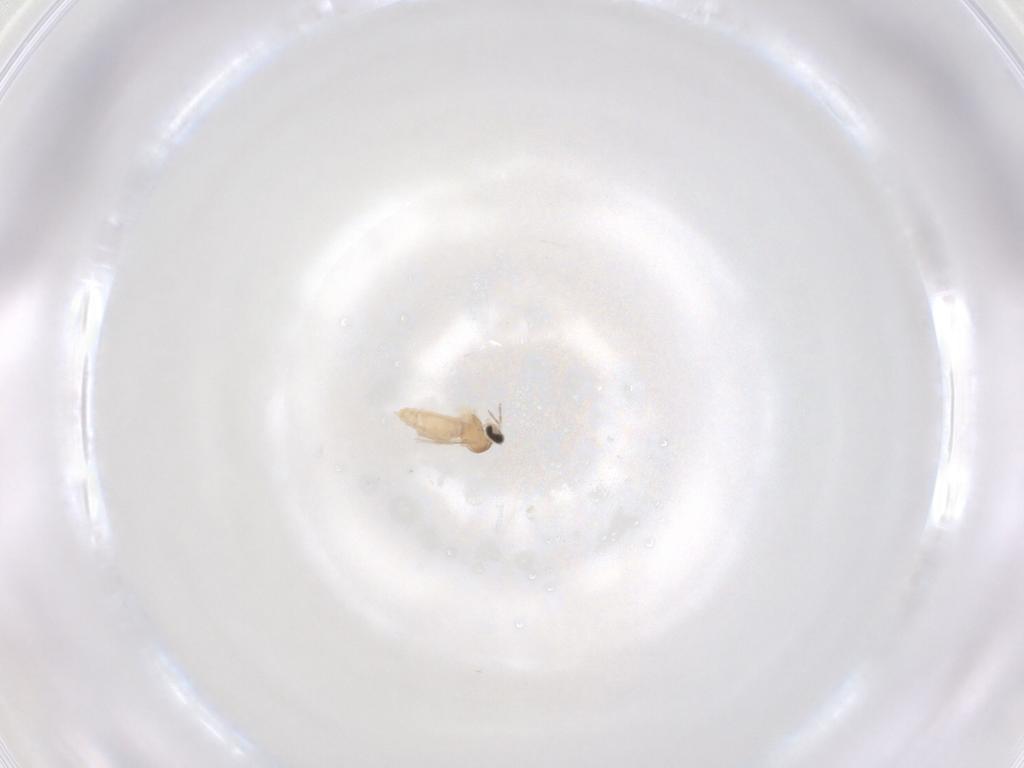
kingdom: Animalia
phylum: Arthropoda
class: Insecta
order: Diptera
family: Cecidomyiidae
